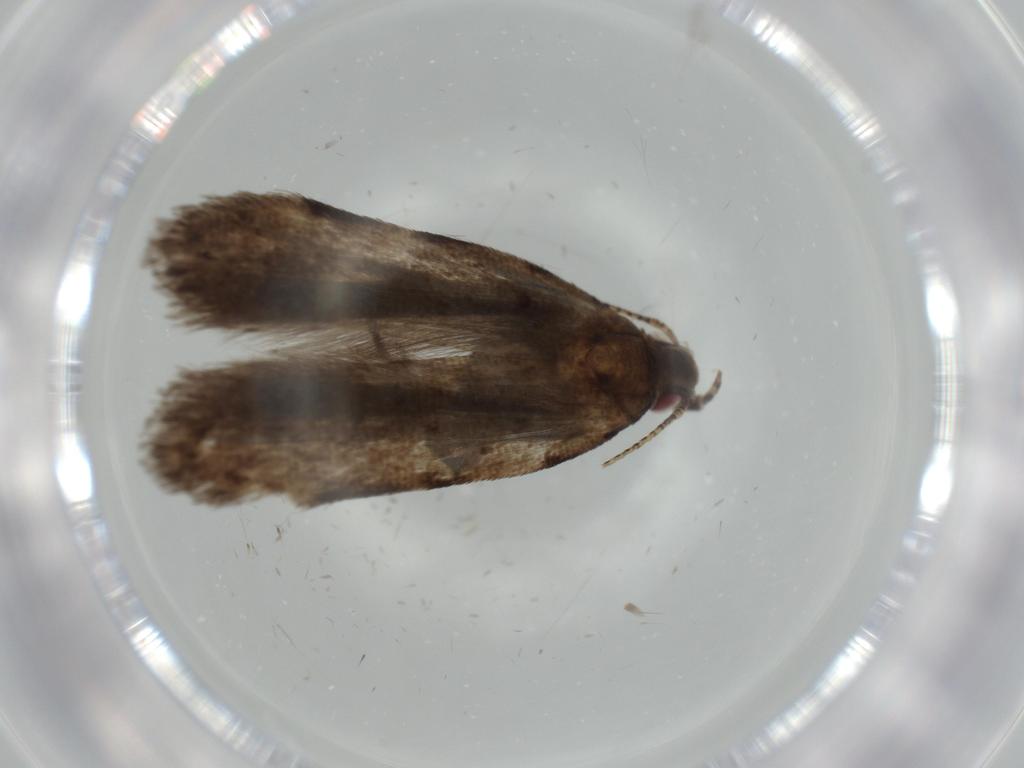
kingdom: Animalia
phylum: Arthropoda
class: Insecta
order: Lepidoptera
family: Gelechiidae
